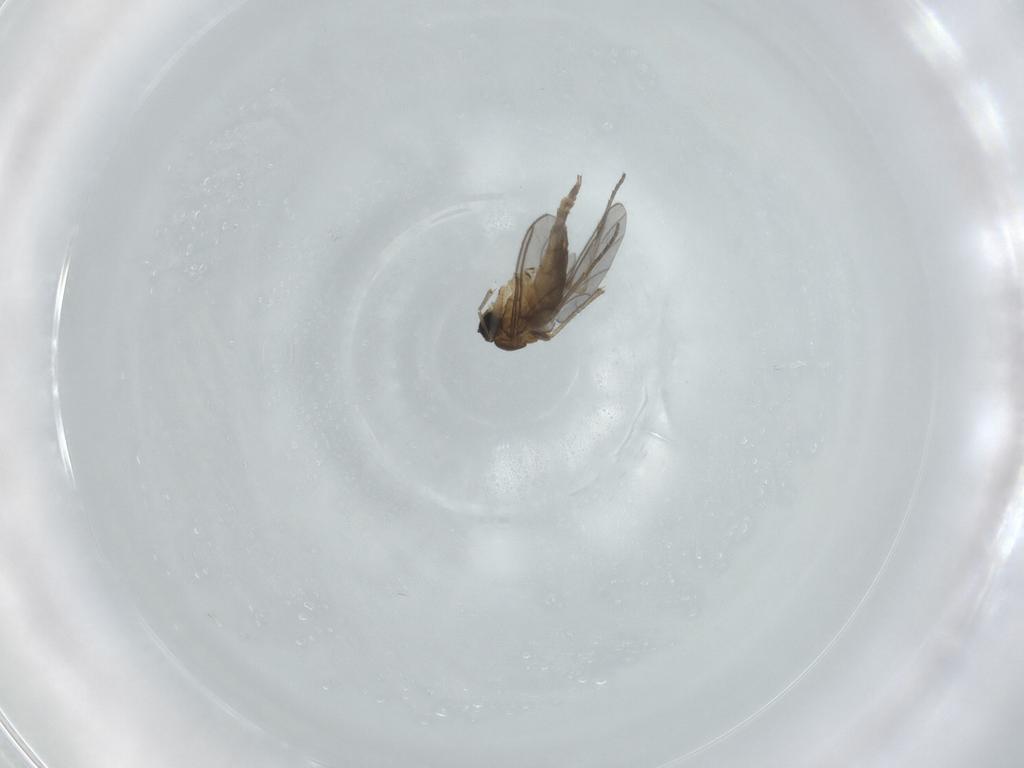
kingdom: Animalia
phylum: Arthropoda
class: Insecta
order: Diptera
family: Sciaridae
